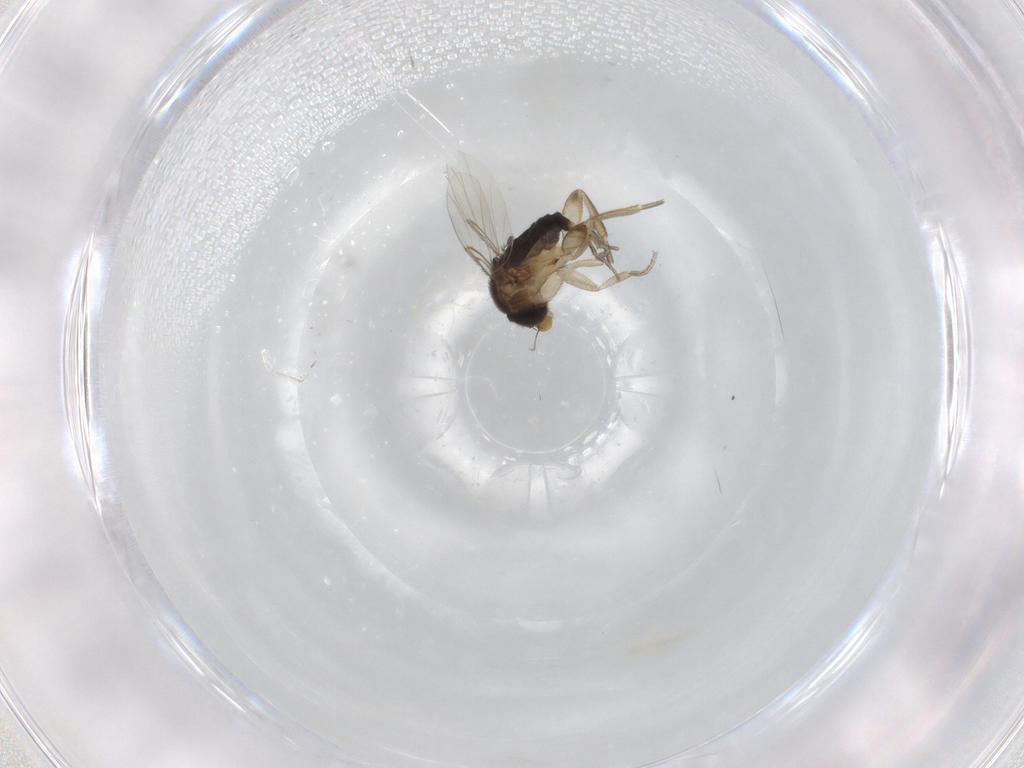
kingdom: Animalia
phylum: Arthropoda
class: Insecta
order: Diptera
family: Phoridae
